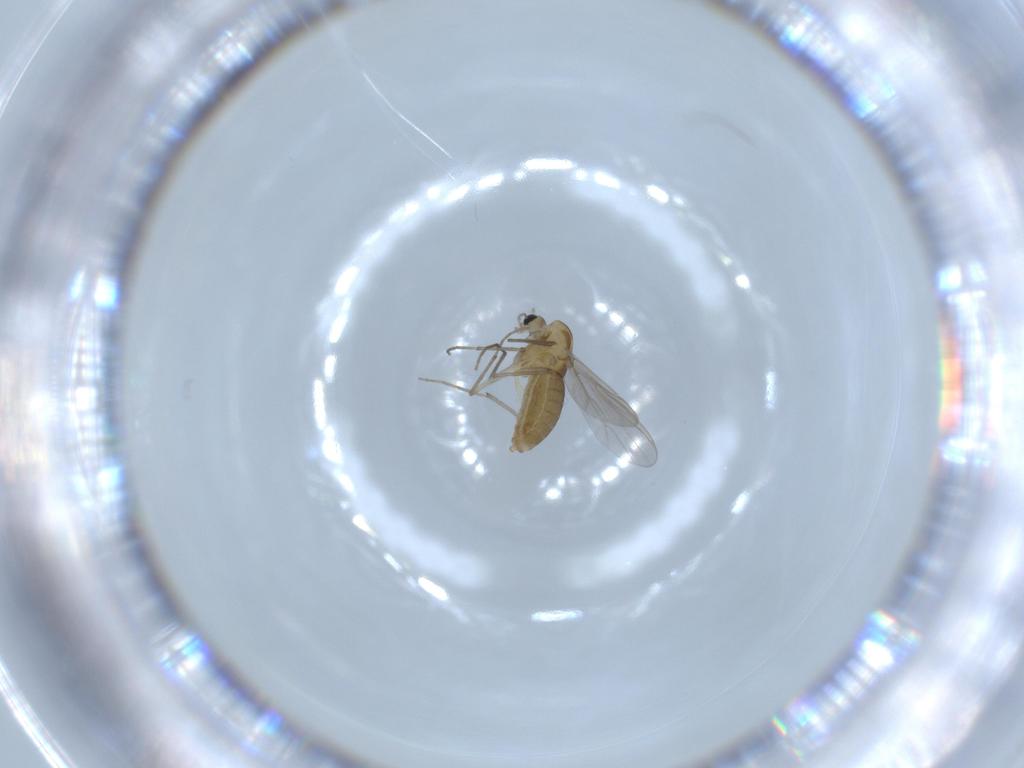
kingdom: Animalia
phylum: Arthropoda
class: Insecta
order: Diptera
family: Chironomidae
